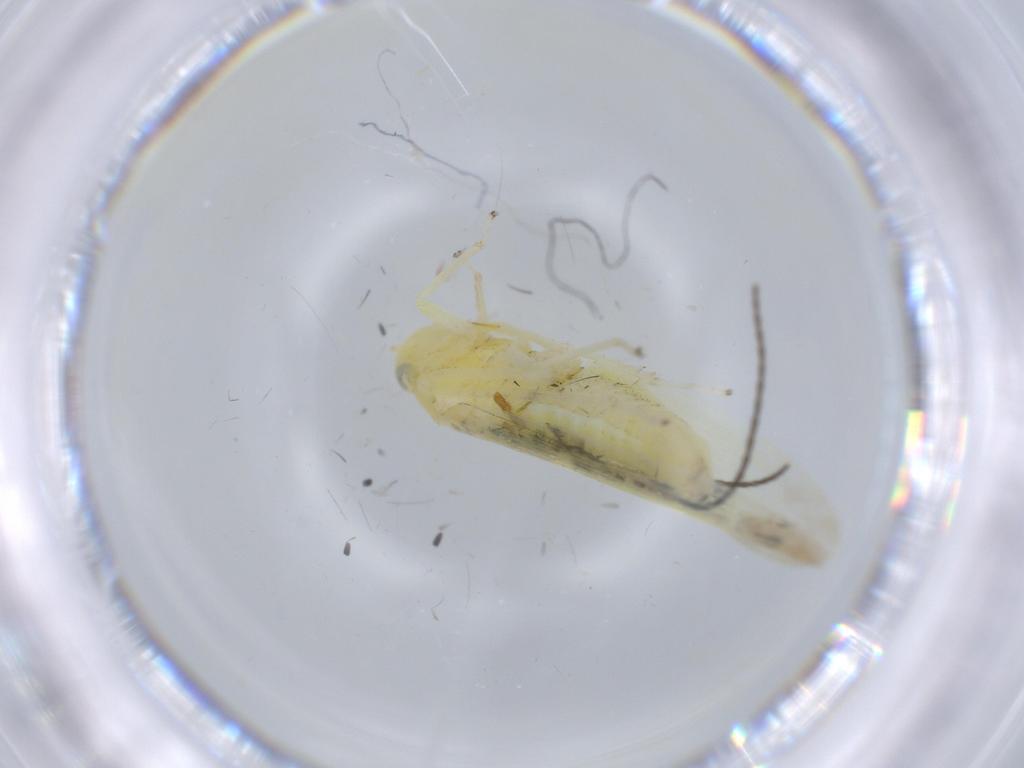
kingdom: Animalia
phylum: Arthropoda
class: Insecta
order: Hemiptera
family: Cicadellidae
